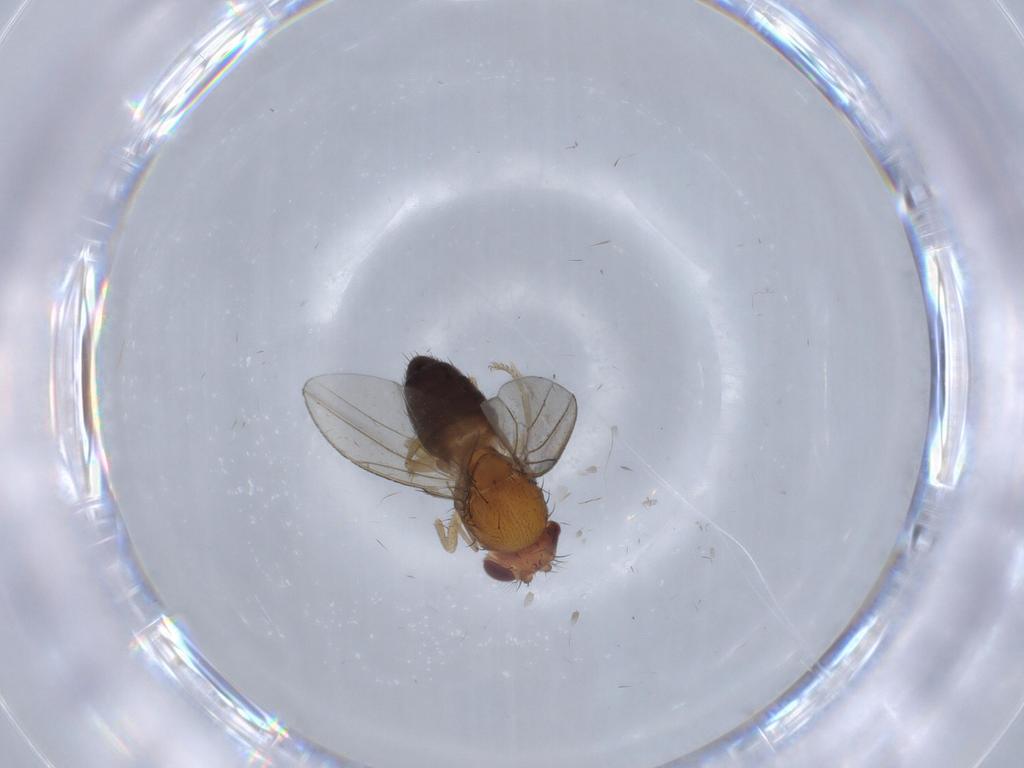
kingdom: Animalia
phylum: Arthropoda
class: Insecta
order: Diptera
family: Drosophilidae
